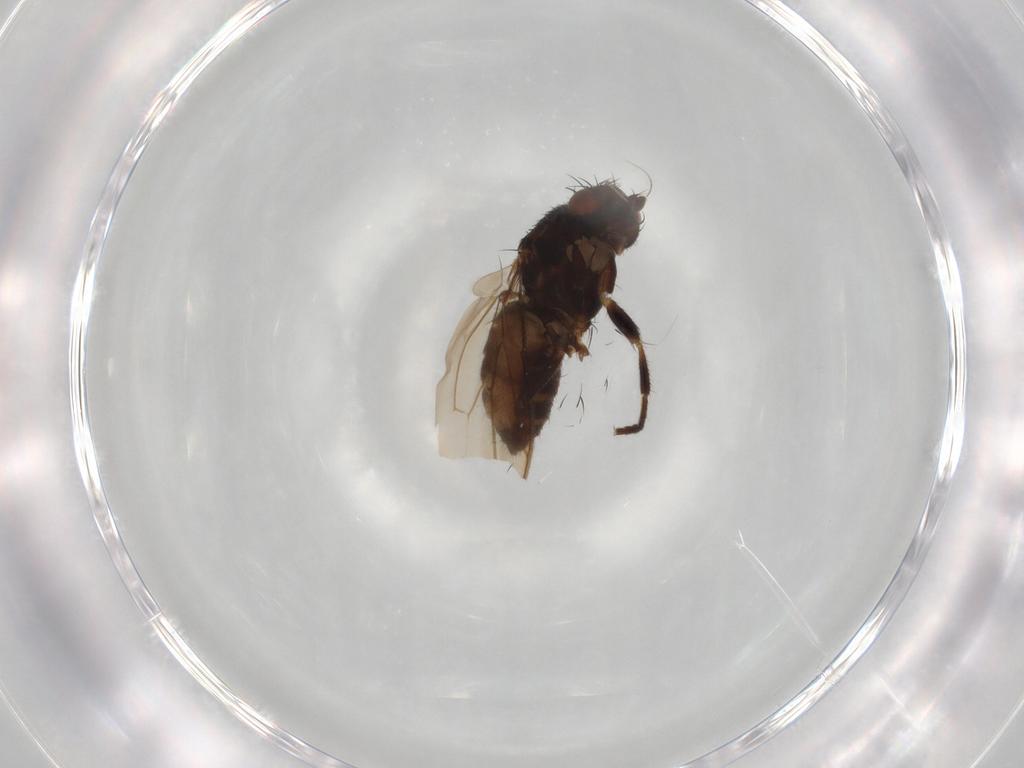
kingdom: Animalia
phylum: Arthropoda
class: Insecta
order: Diptera
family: Sphaeroceridae
